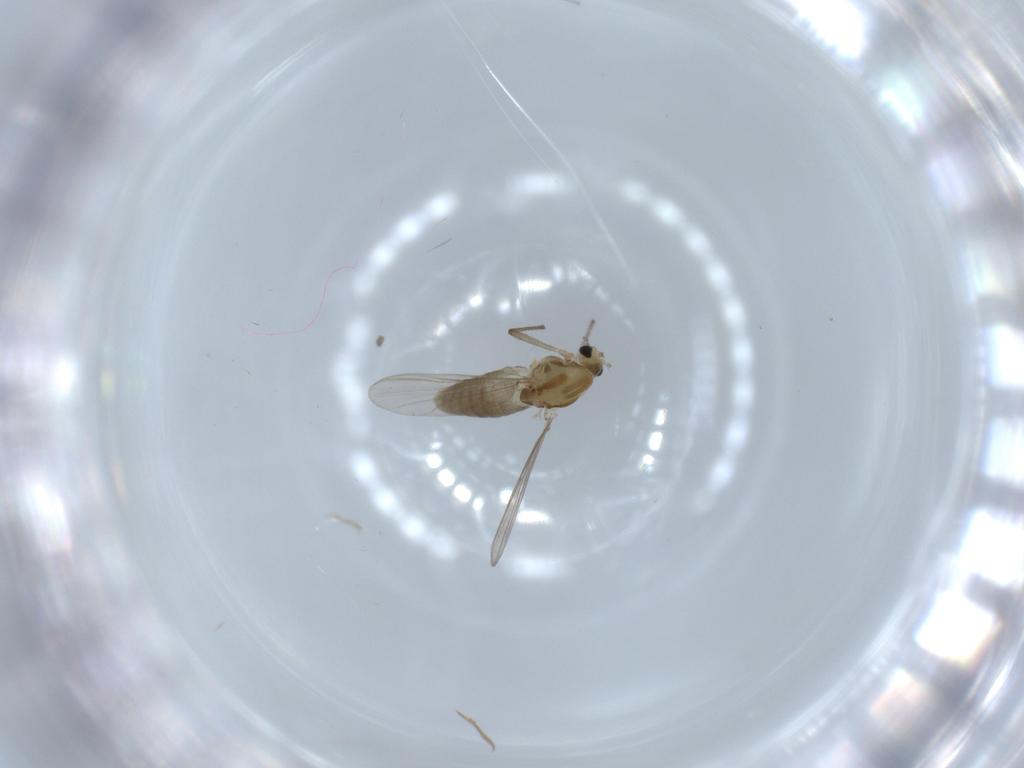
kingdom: Animalia
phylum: Arthropoda
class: Insecta
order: Diptera
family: Chironomidae
